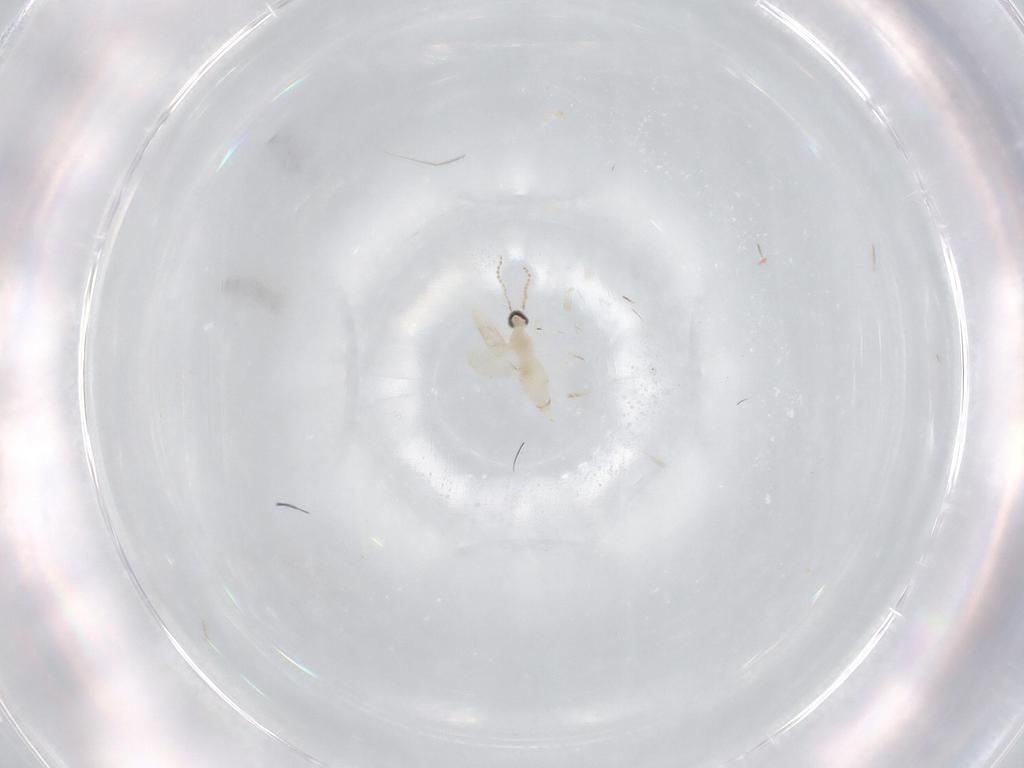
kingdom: Animalia
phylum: Arthropoda
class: Insecta
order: Diptera
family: Cecidomyiidae
